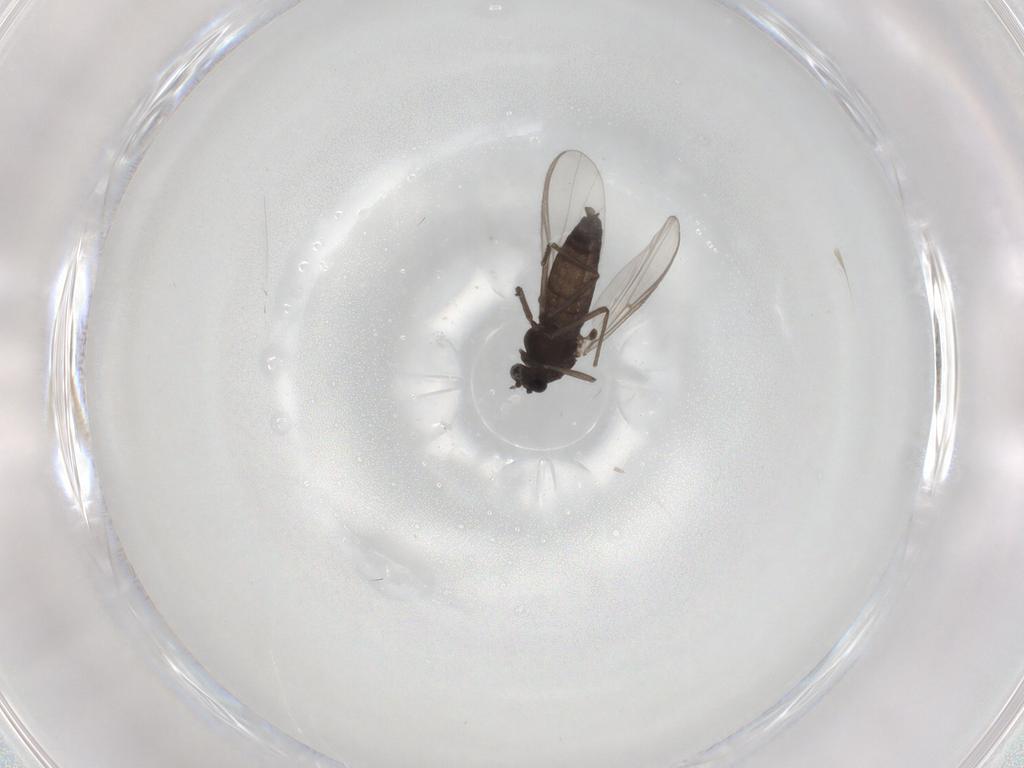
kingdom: Animalia
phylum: Arthropoda
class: Insecta
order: Diptera
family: Chironomidae
